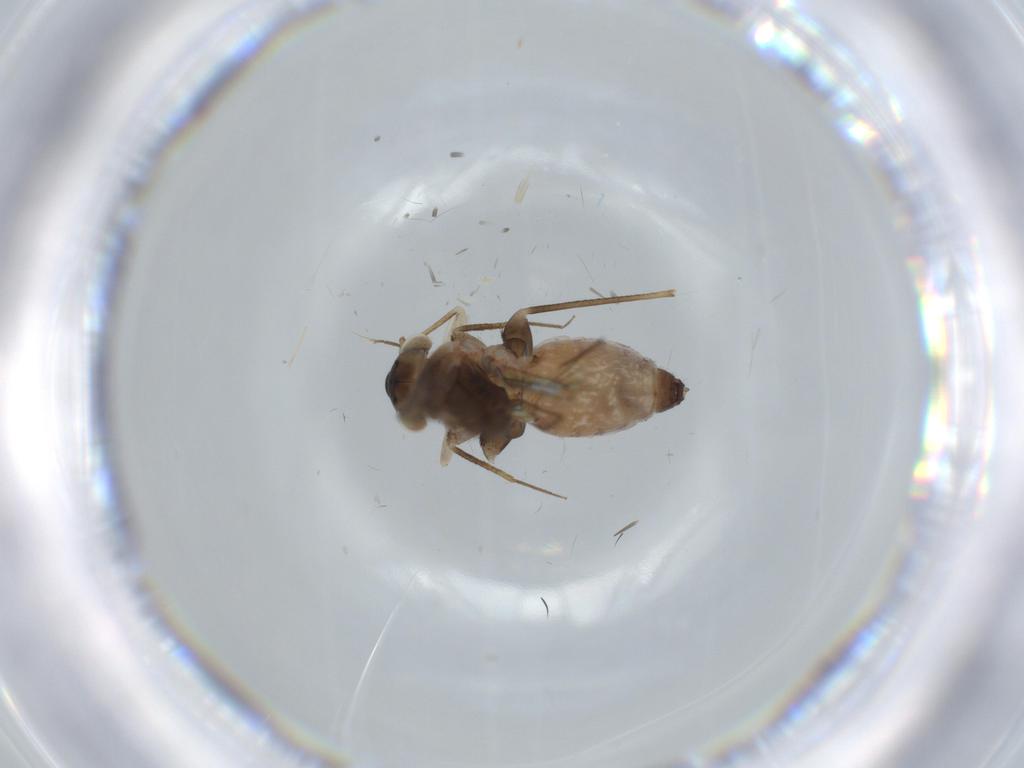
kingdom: Animalia
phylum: Arthropoda
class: Insecta
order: Psocodea
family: Lepidopsocidae
